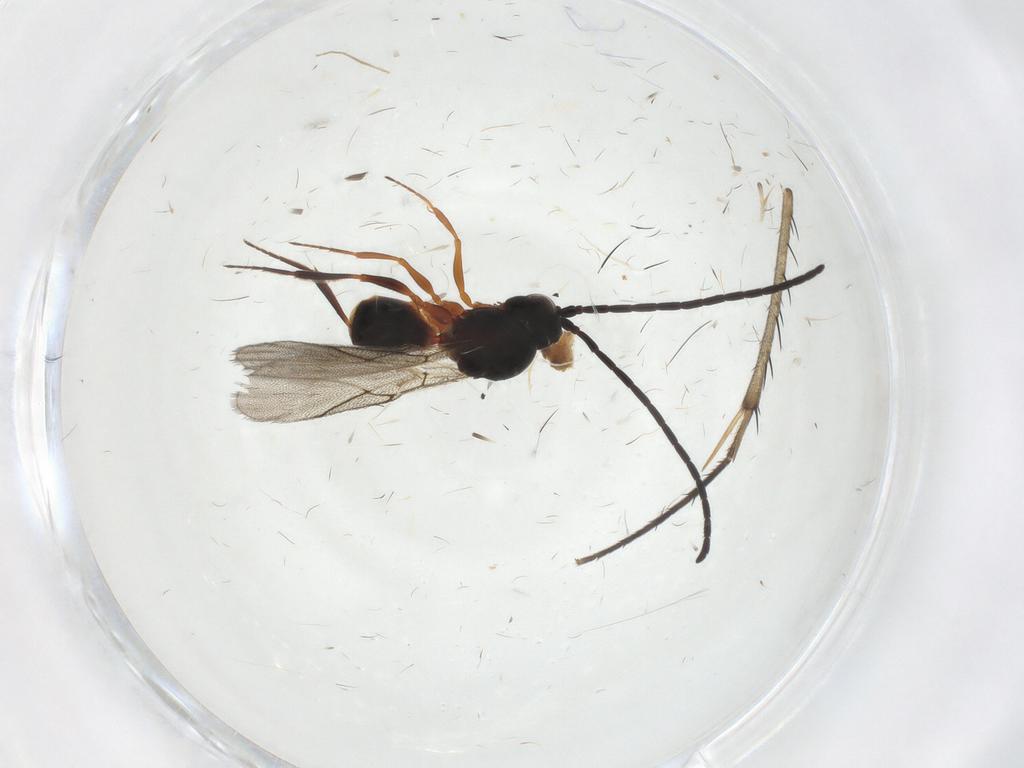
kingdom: Animalia
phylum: Arthropoda
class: Insecta
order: Hymenoptera
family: Figitidae
